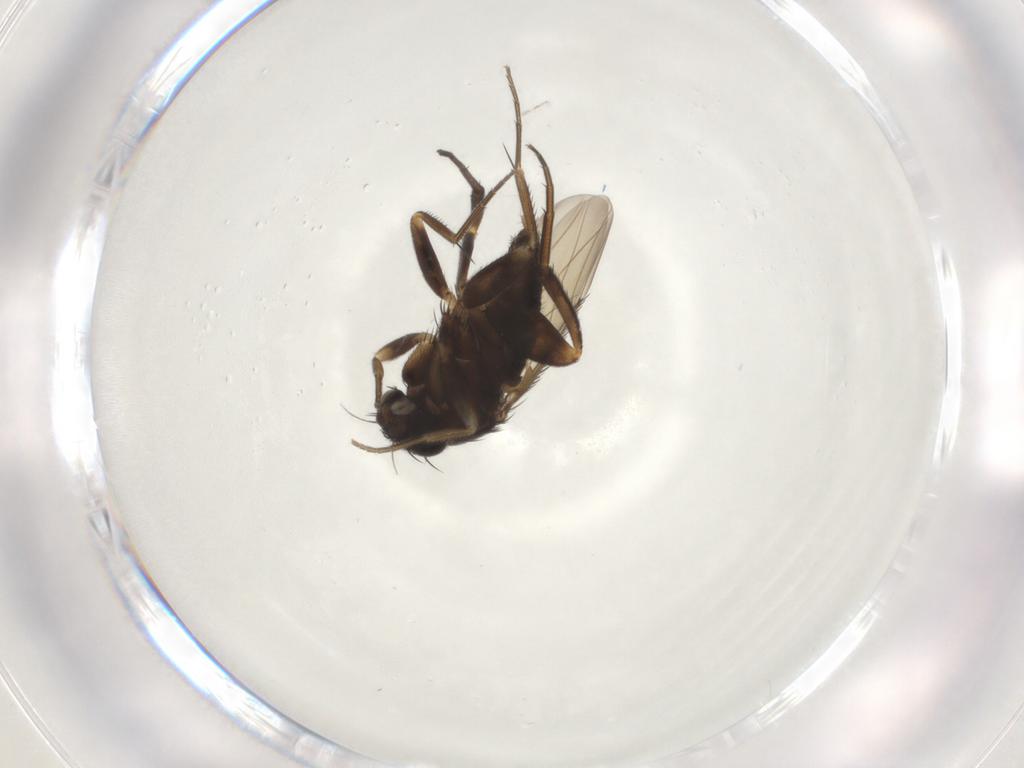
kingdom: Animalia
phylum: Arthropoda
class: Insecta
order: Diptera
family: Phoridae
